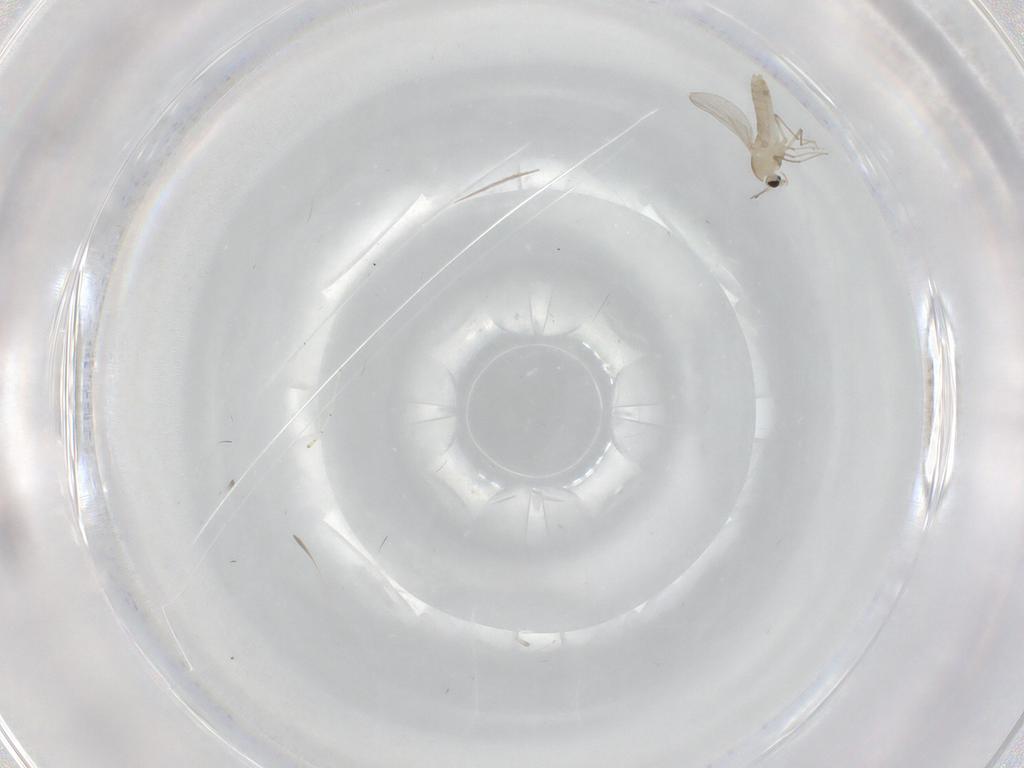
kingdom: Animalia
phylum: Arthropoda
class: Insecta
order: Diptera
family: Chironomidae
